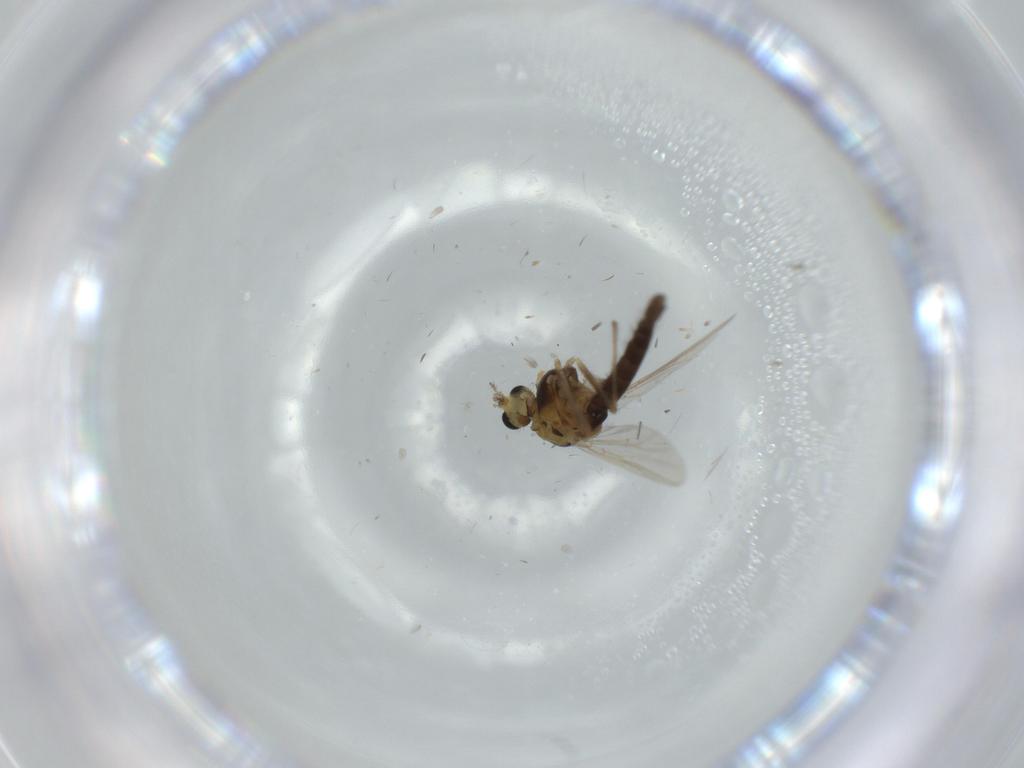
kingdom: Animalia
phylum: Arthropoda
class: Insecta
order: Diptera
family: Chironomidae
